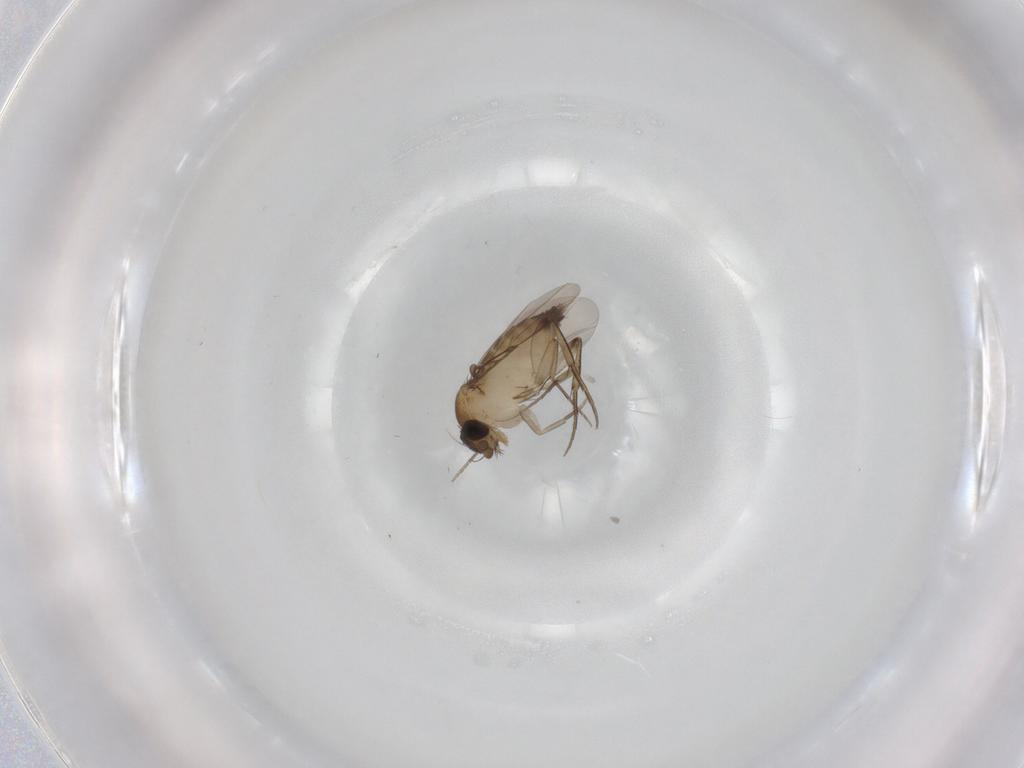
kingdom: Animalia
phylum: Arthropoda
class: Insecta
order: Diptera
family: Phoridae
